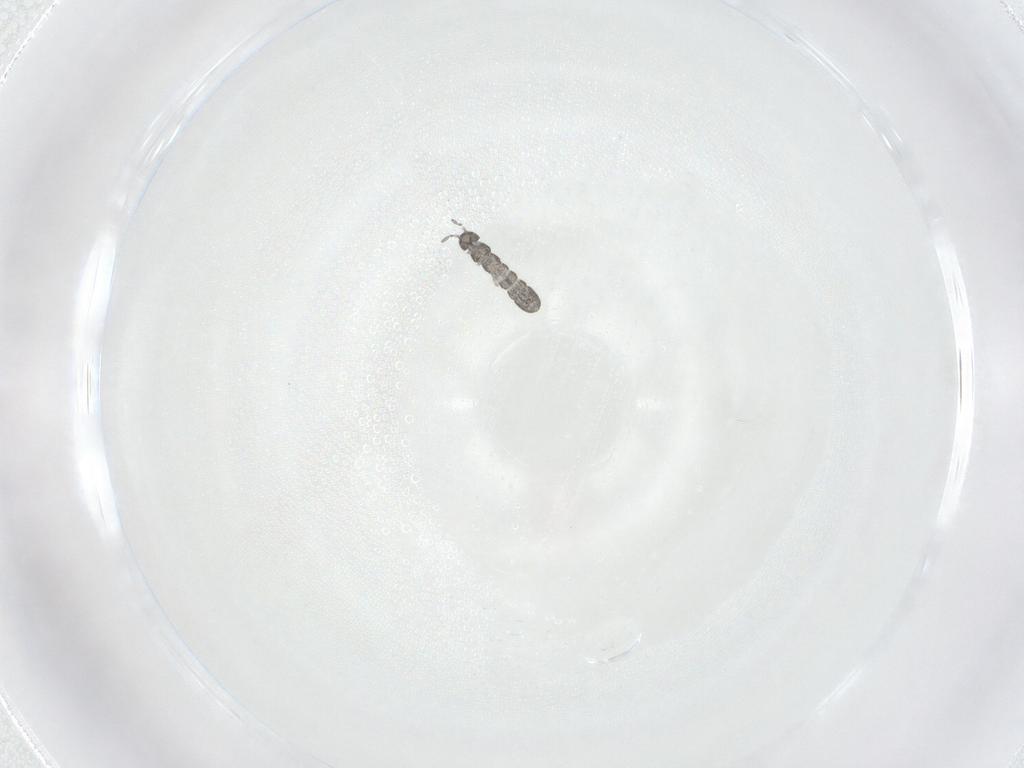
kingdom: Animalia
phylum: Arthropoda
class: Collembola
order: Entomobryomorpha
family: Isotomidae
